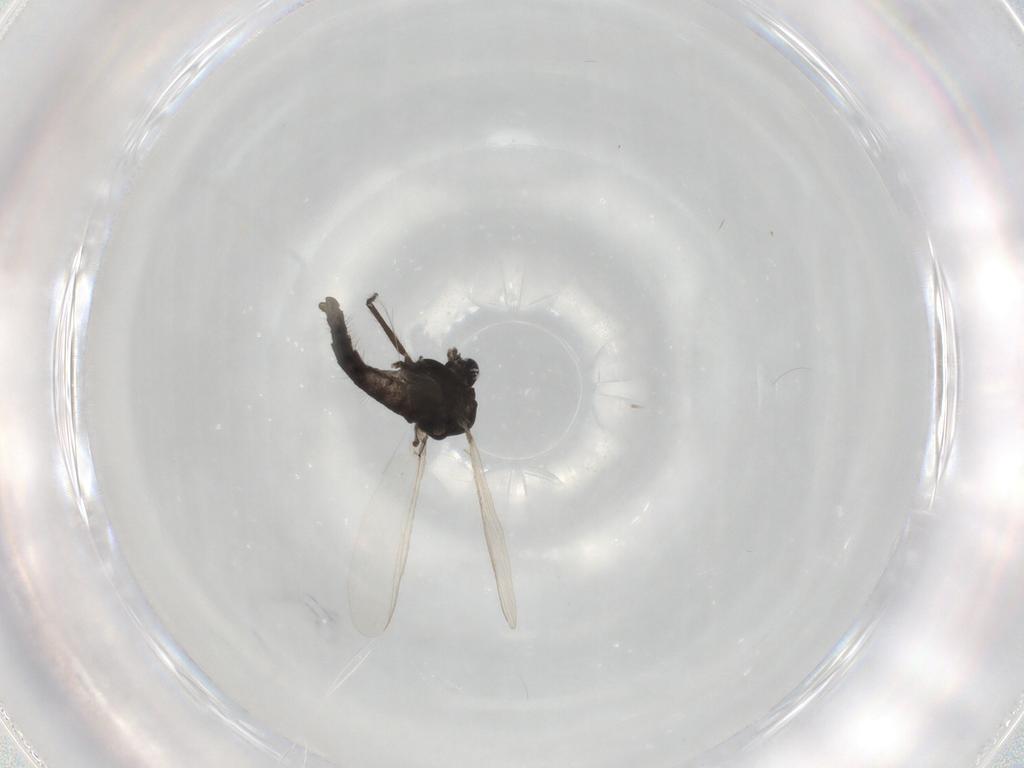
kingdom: Animalia
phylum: Arthropoda
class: Insecta
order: Diptera
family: Chironomidae
